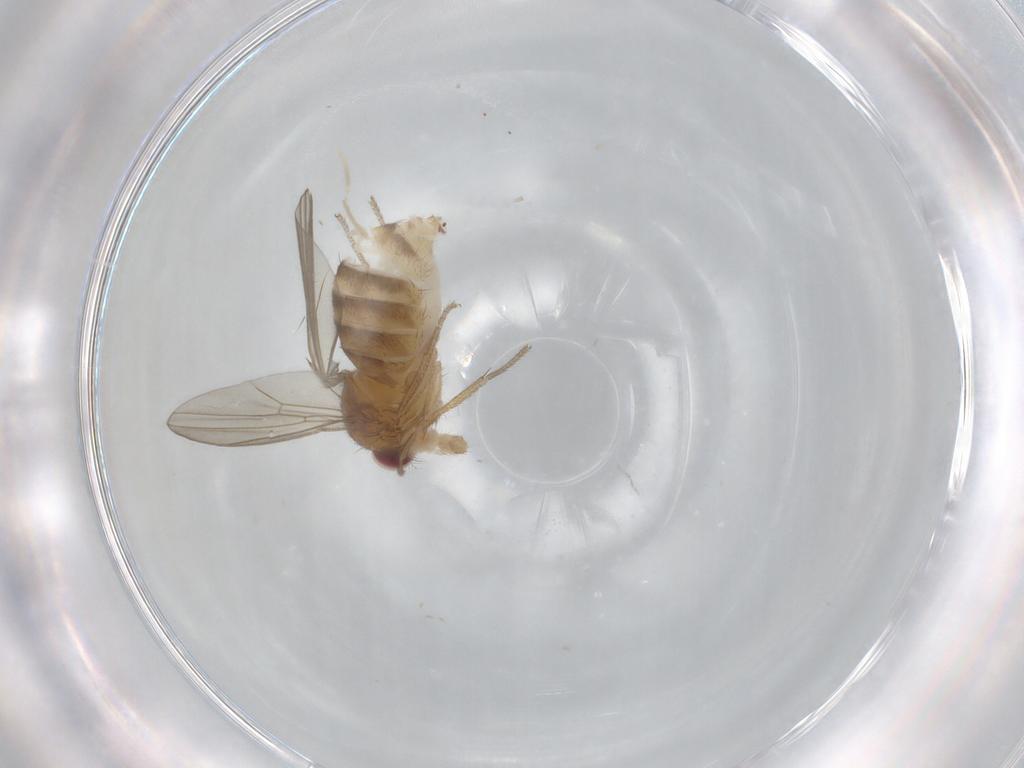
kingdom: Animalia
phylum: Arthropoda
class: Insecta
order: Diptera
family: Drosophilidae
